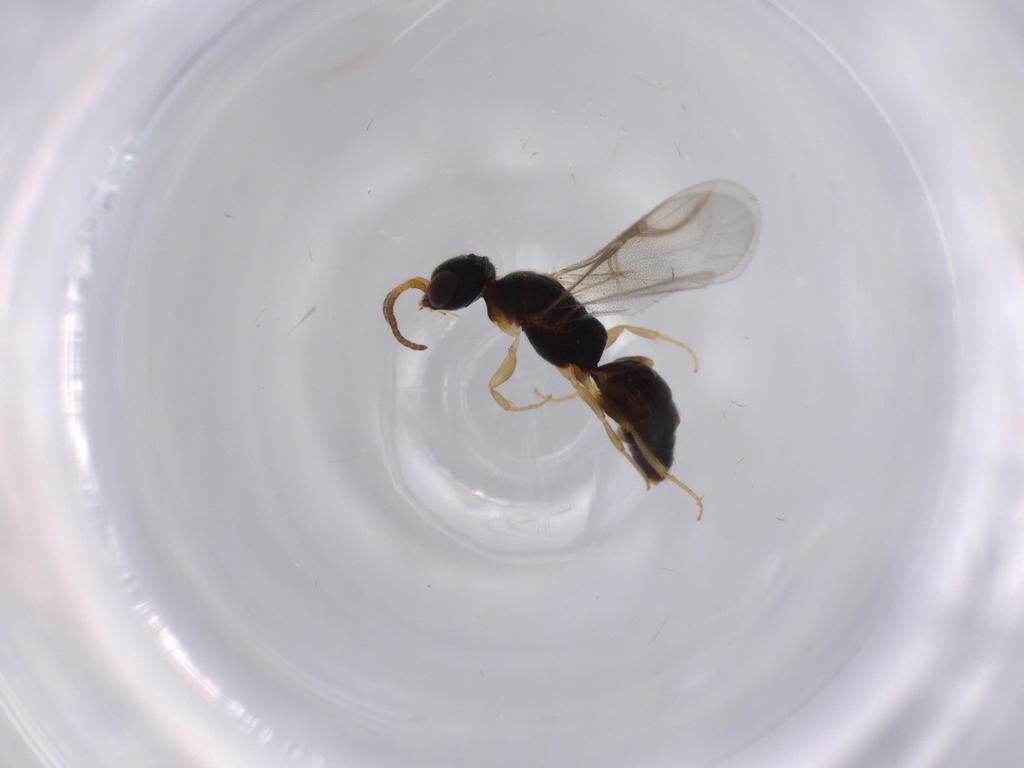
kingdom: Animalia
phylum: Arthropoda
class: Insecta
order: Hymenoptera
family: Bethylidae
